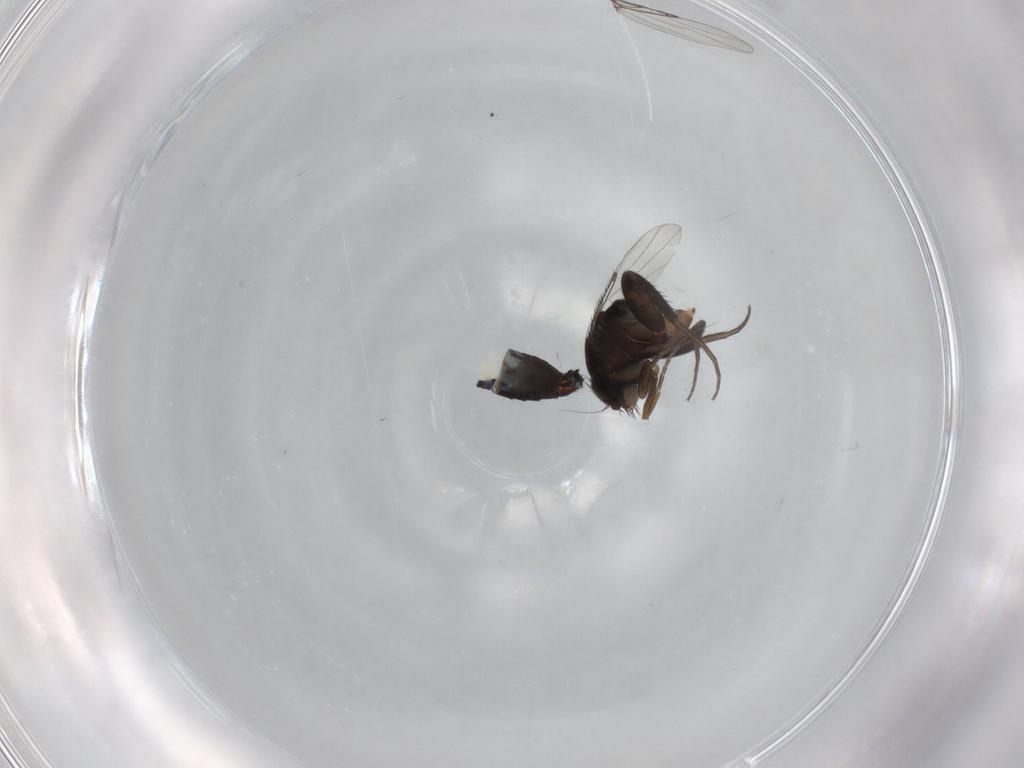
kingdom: Animalia
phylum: Arthropoda
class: Insecta
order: Diptera
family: Phoridae
